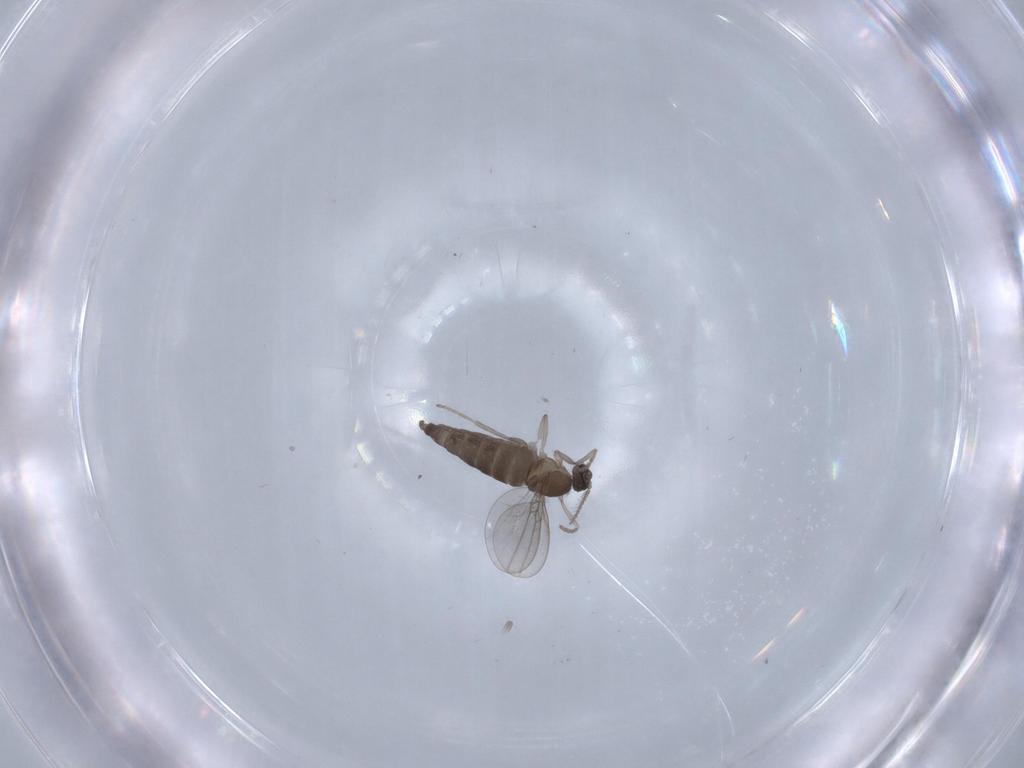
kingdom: Animalia
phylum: Arthropoda
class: Insecta
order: Diptera
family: Cecidomyiidae
